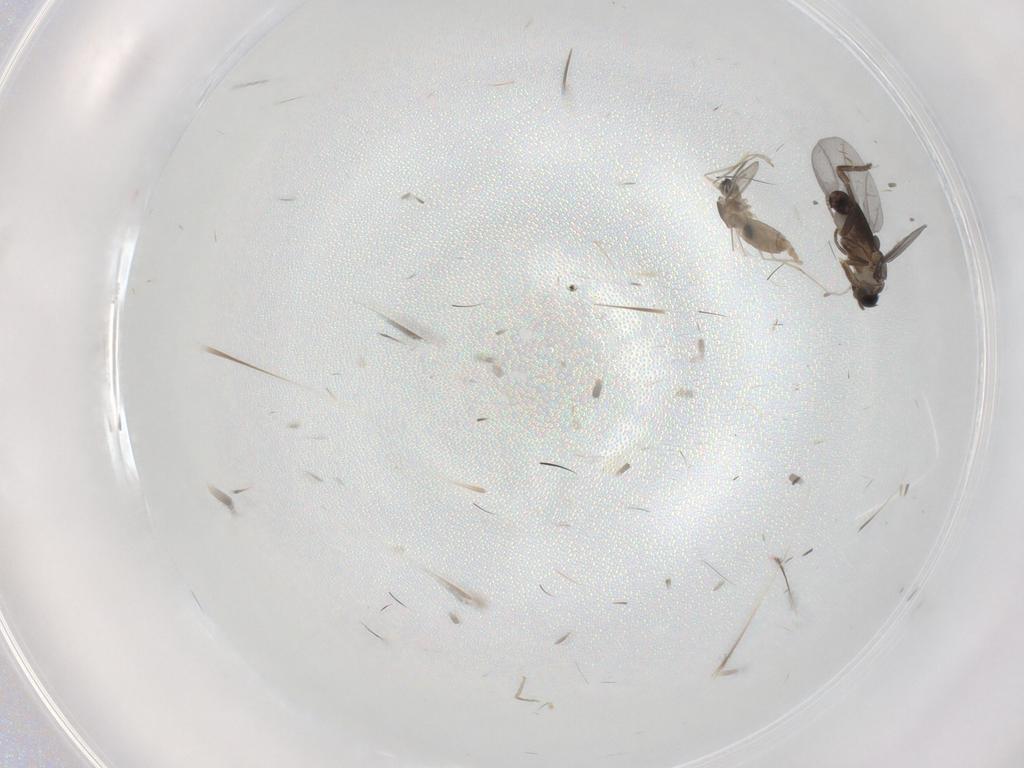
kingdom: Animalia
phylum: Arthropoda
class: Insecta
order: Diptera
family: Cecidomyiidae
